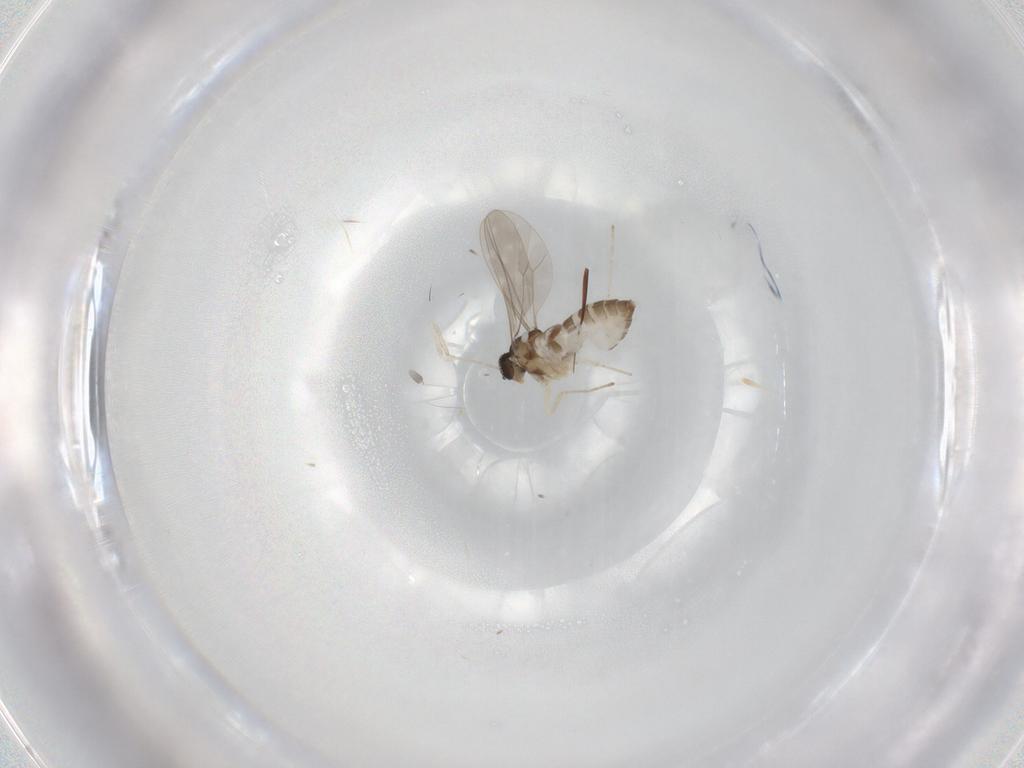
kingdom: Animalia
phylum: Arthropoda
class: Insecta
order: Diptera
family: Cecidomyiidae
